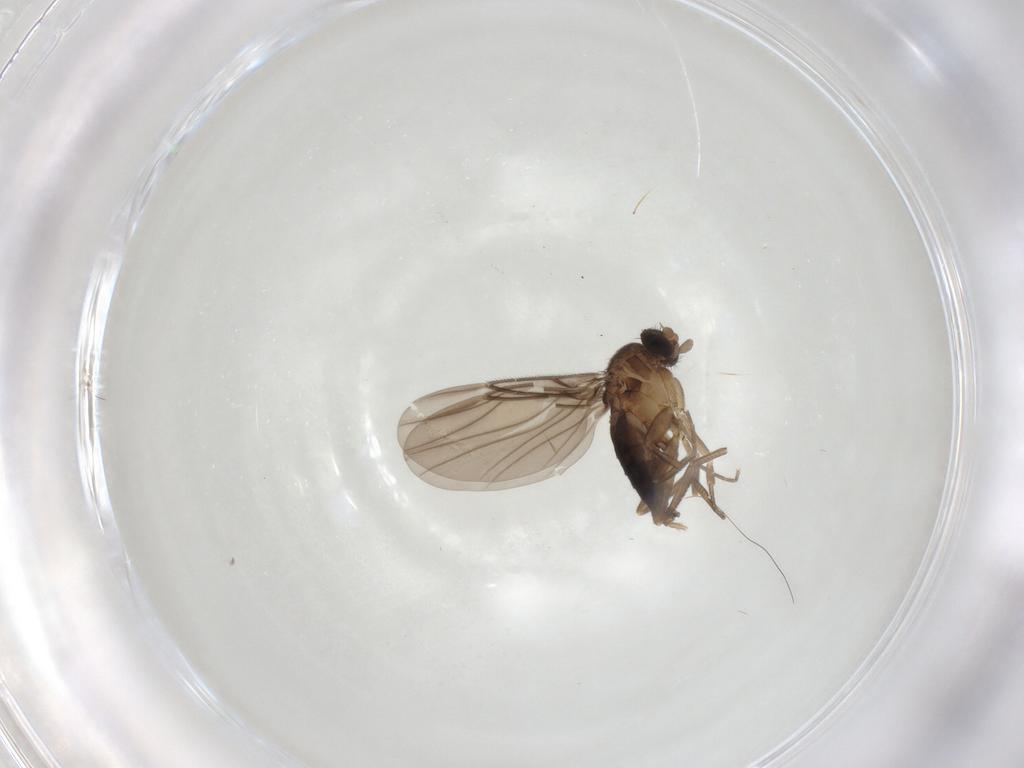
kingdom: Animalia
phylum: Arthropoda
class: Insecta
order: Diptera
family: Phoridae
